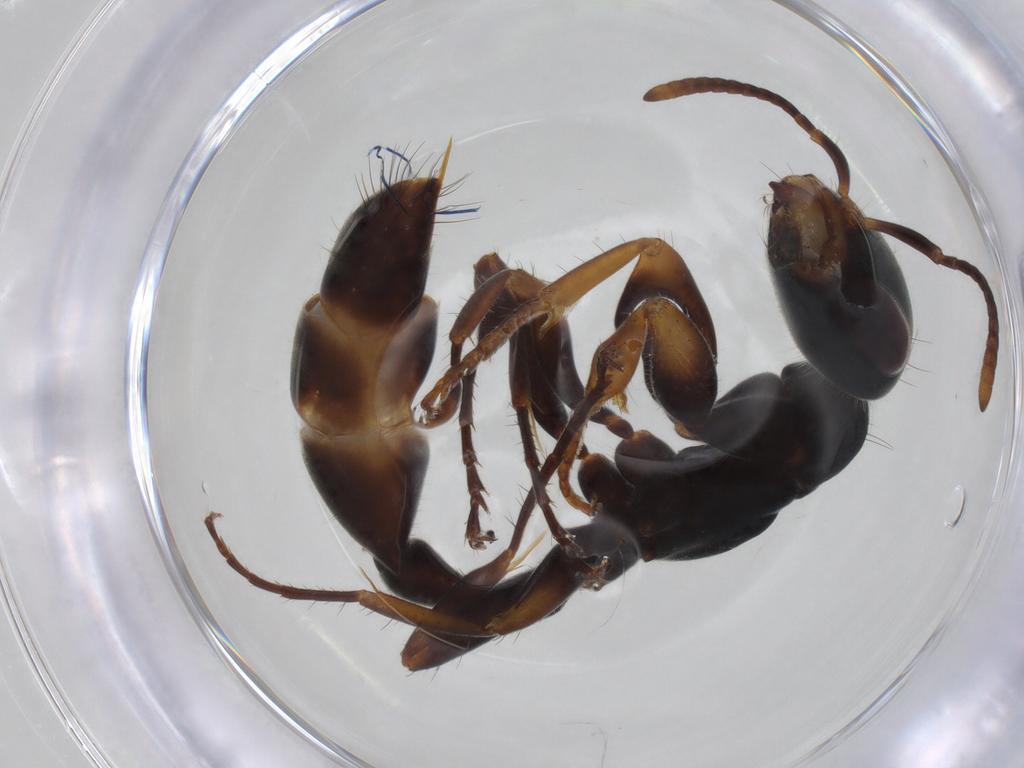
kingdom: Animalia
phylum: Arthropoda
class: Insecta
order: Hymenoptera
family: Formicidae
